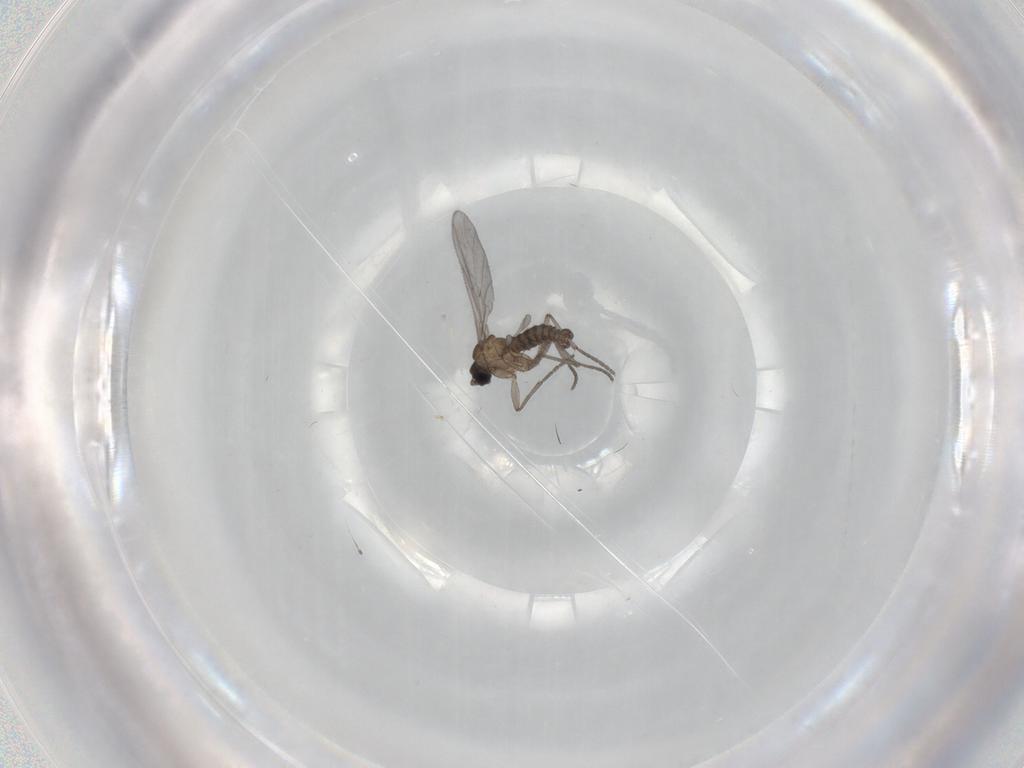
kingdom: Animalia
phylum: Arthropoda
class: Insecta
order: Diptera
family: Sciaridae
